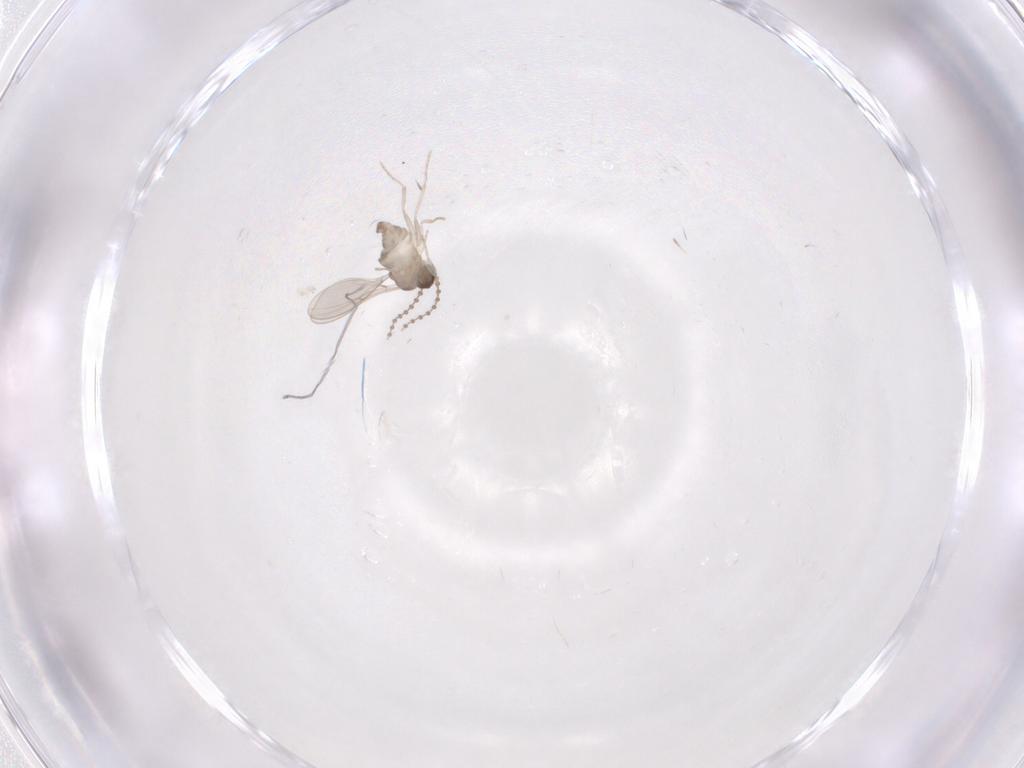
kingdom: Animalia
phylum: Arthropoda
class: Insecta
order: Diptera
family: Cecidomyiidae
